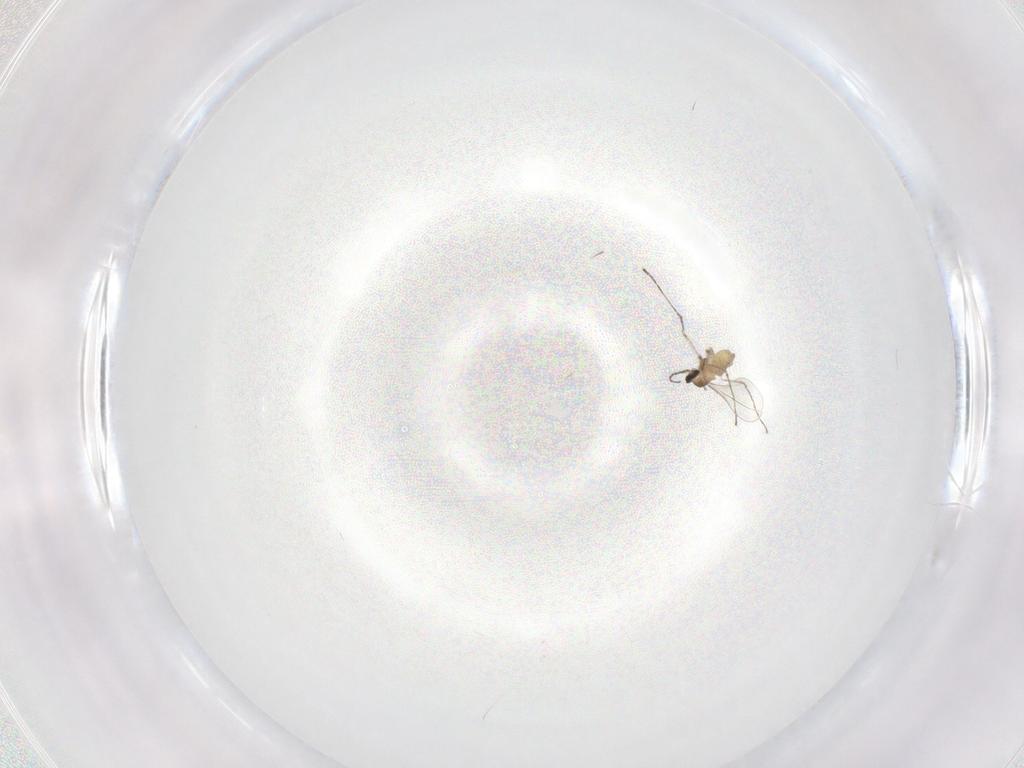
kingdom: Animalia
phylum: Arthropoda
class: Insecta
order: Diptera
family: Cecidomyiidae
